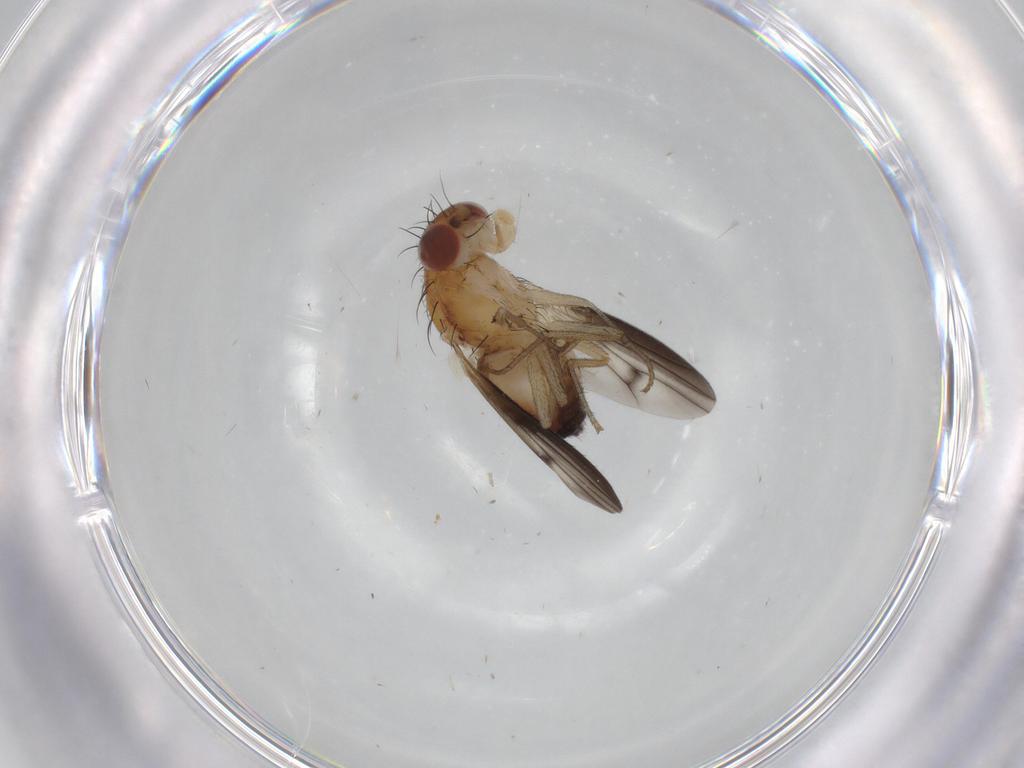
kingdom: Animalia
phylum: Arthropoda
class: Insecta
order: Diptera
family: Heleomyzidae
